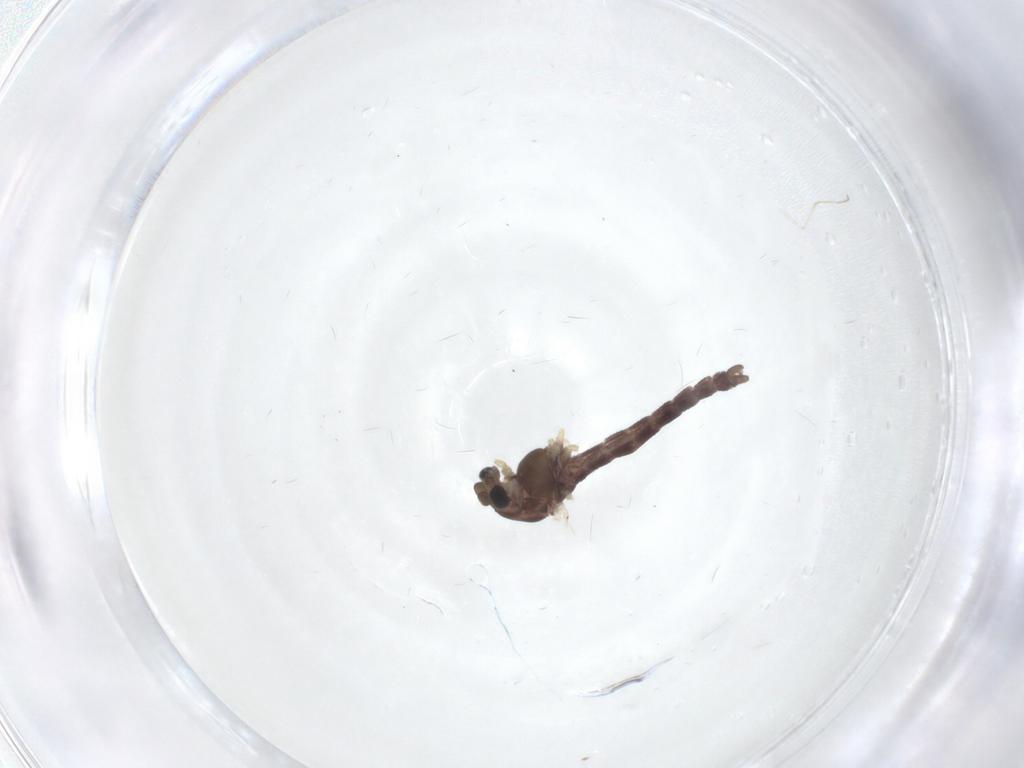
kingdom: Animalia
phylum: Arthropoda
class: Insecta
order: Diptera
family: Chironomidae
